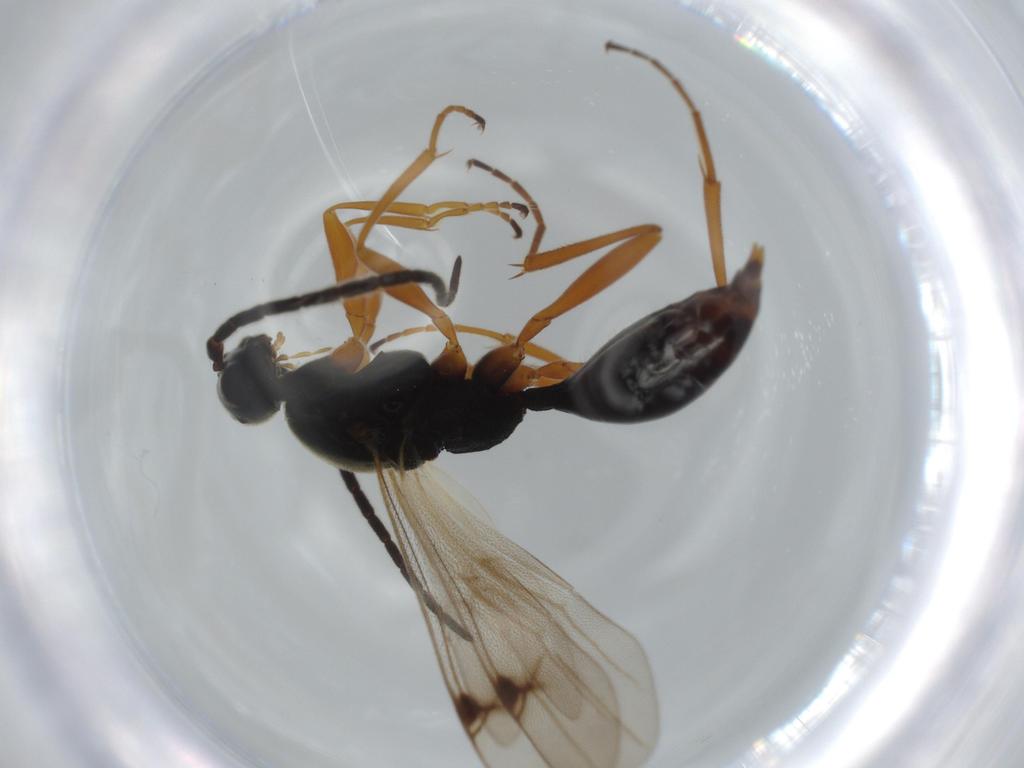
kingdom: Animalia
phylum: Arthropoda
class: Insecta
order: Hymenoptera
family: Pteromalidae
